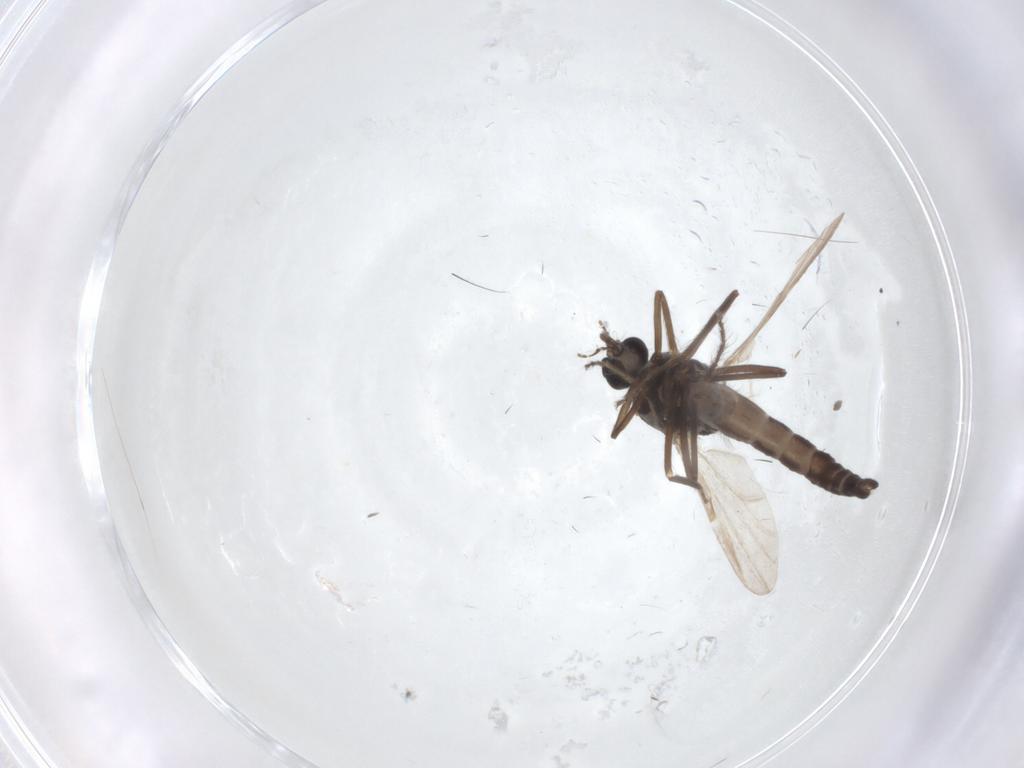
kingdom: Animalia
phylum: Arthropoda
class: Insecta
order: Diptera
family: Ceratopogonidae
